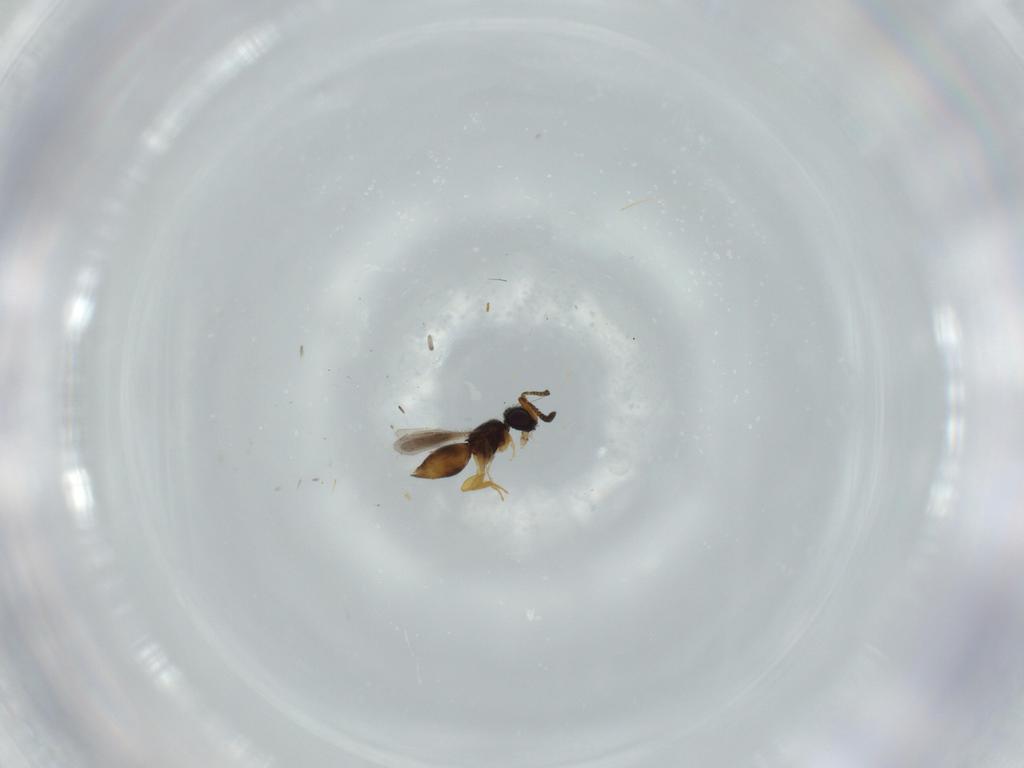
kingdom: Animalia
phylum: Arthropoda
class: Insecta
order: Hymenoptera
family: Ceraphronidae
